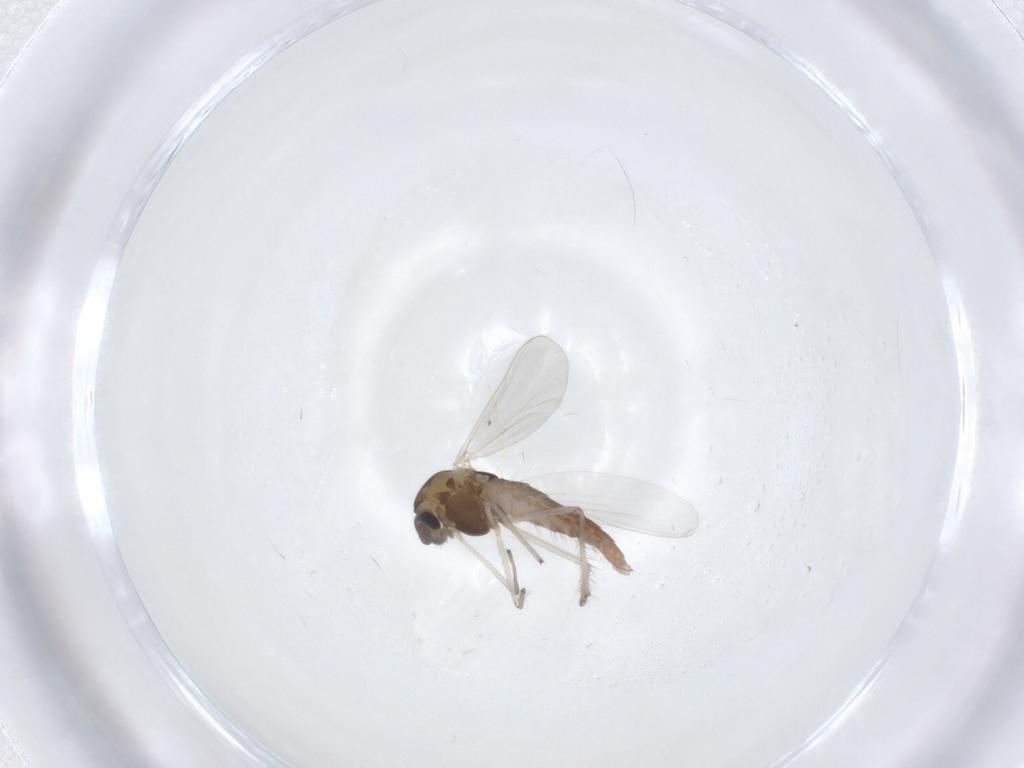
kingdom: Animalia
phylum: Arthropoda
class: Insecta
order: Diptera
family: Chironomidae
